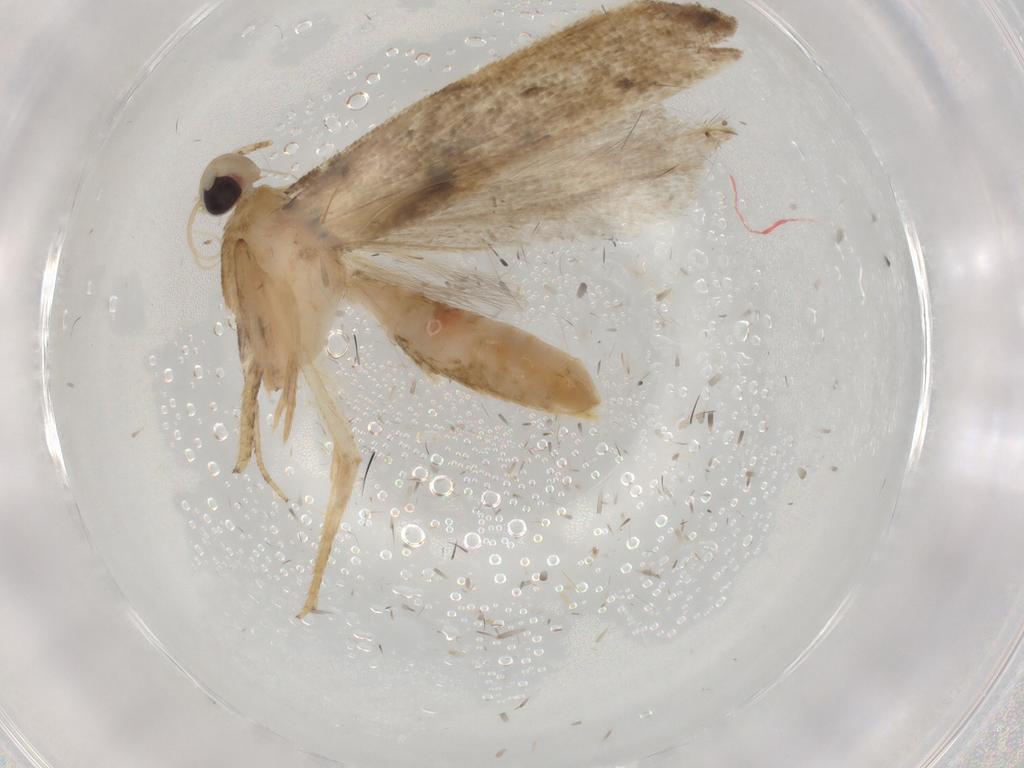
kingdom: Animalia
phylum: Arthropoda
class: Insecta
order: Lepidoptera
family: Gelechiidae
